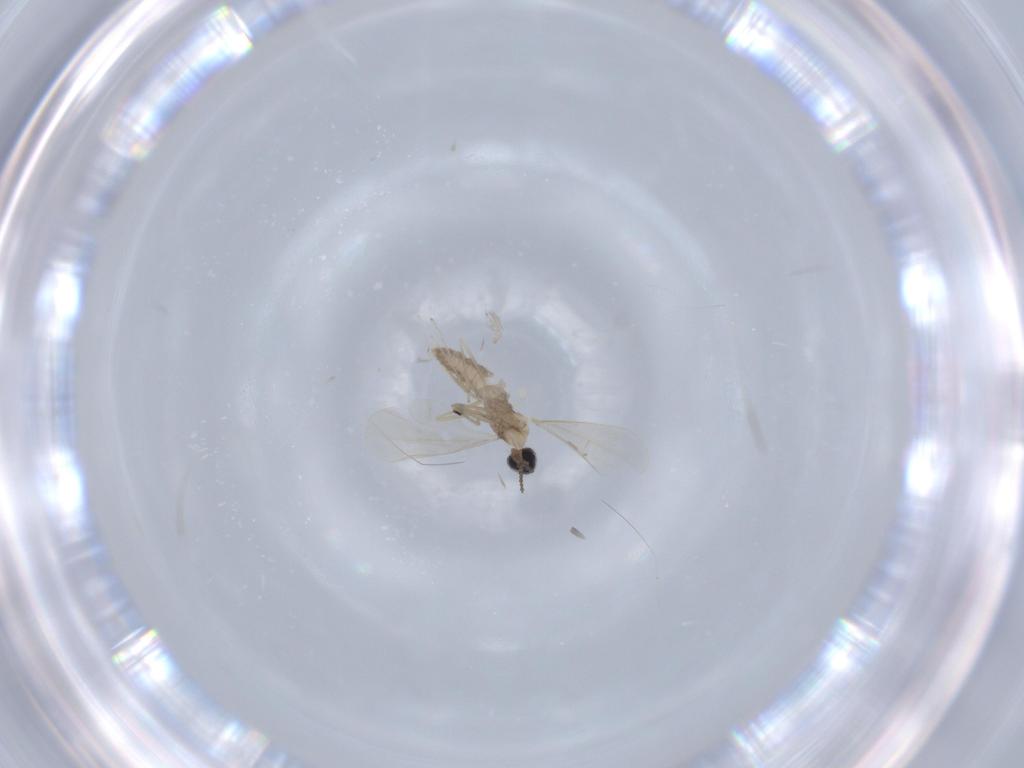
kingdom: Animalia
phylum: Arthropoda
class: Insecta
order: Diptera
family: Cecidomyiidae
